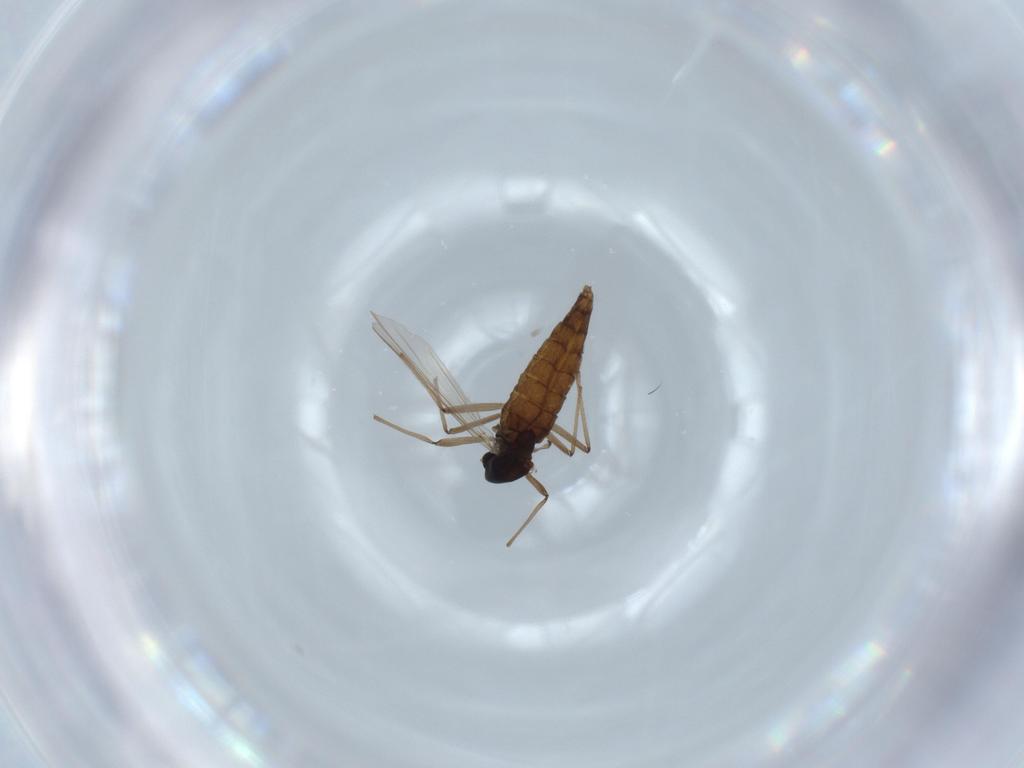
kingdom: Animalia
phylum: Arthropoda
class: Insecta
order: Diptera
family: Chironomidae
